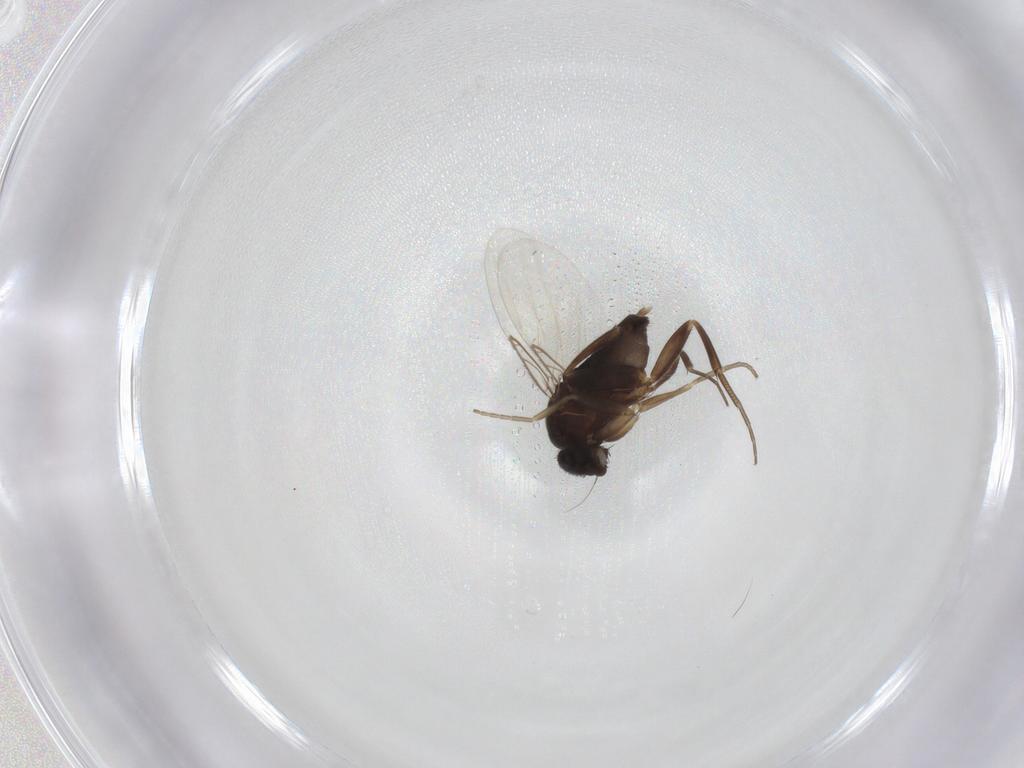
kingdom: Animalia
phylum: Arthropoda
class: Insecta
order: Diptera
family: Phoridae
